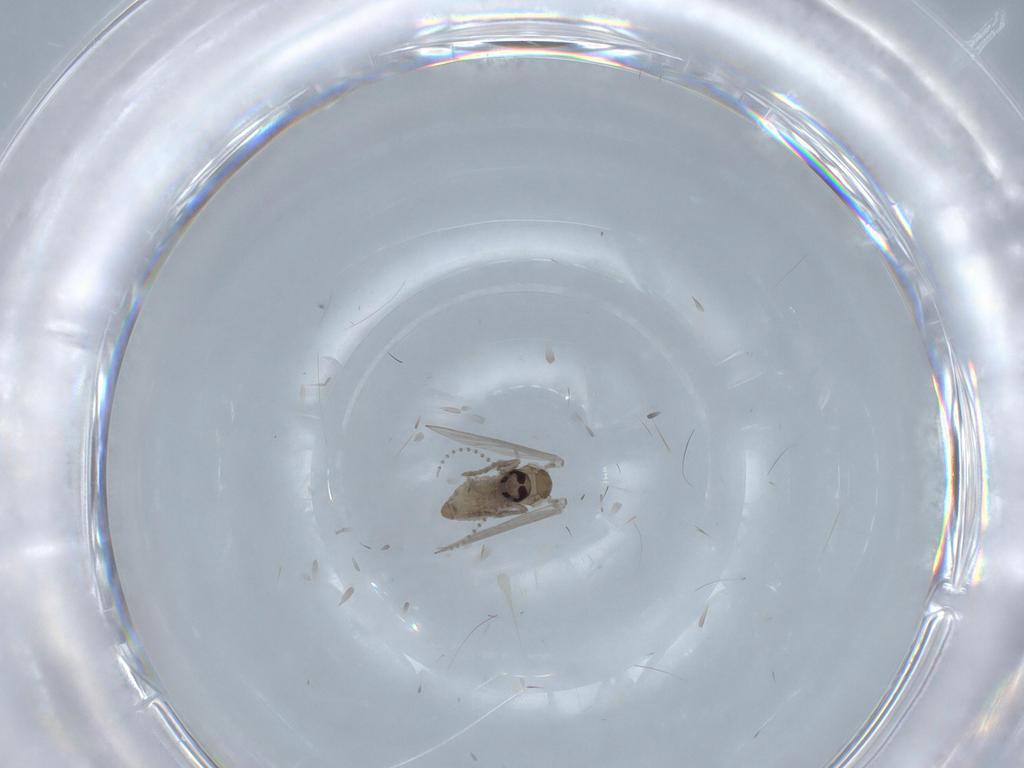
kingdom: Animalia
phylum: Arthropoda
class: Insecta
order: Diptera
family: Psychodidae
